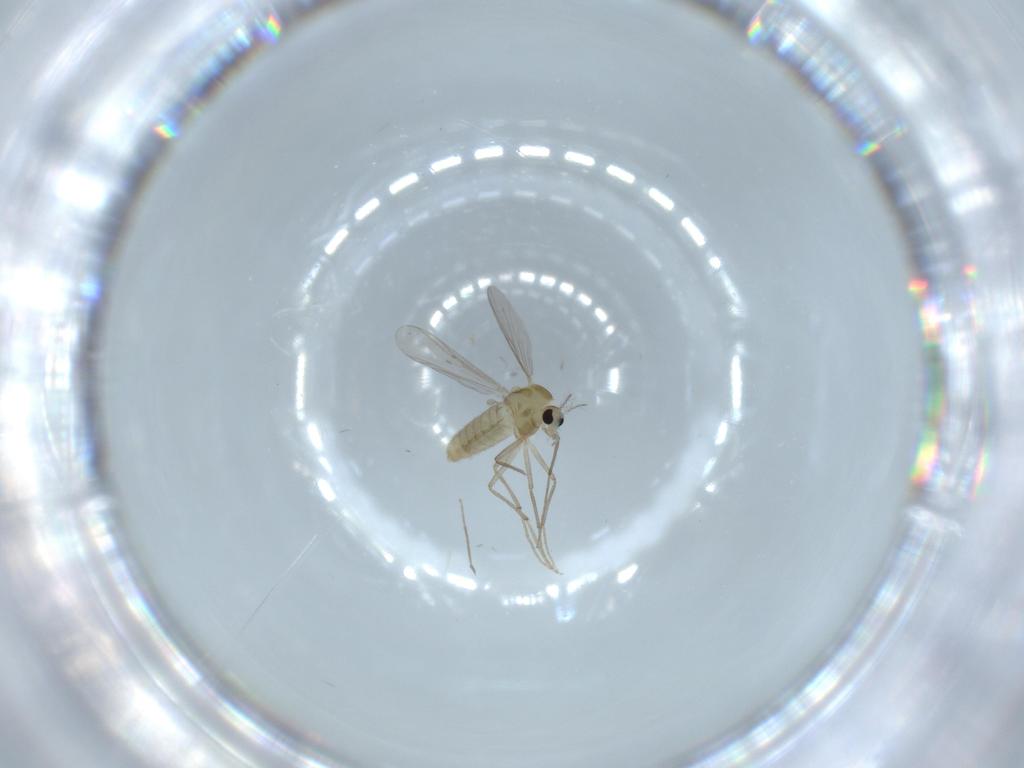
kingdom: Animalia
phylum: Arthropoda
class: Insecta
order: Diptera
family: Chironomidae
